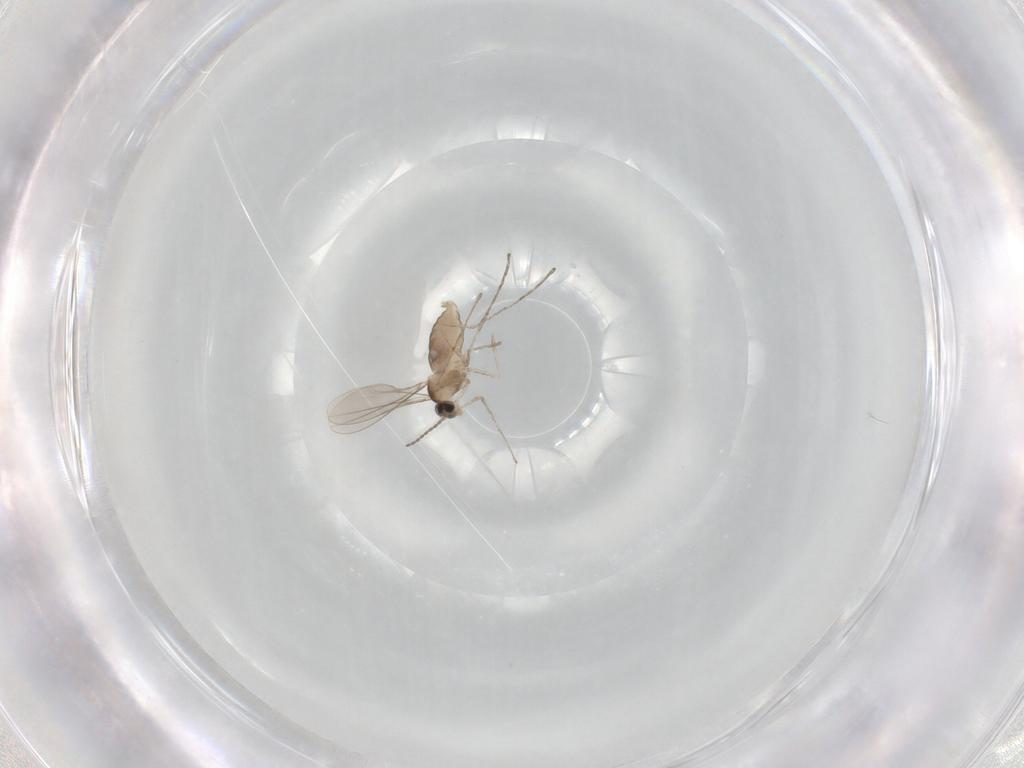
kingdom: Animalia
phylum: Arthropoda
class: Insecta
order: Diptera
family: Cecidomyiidae
